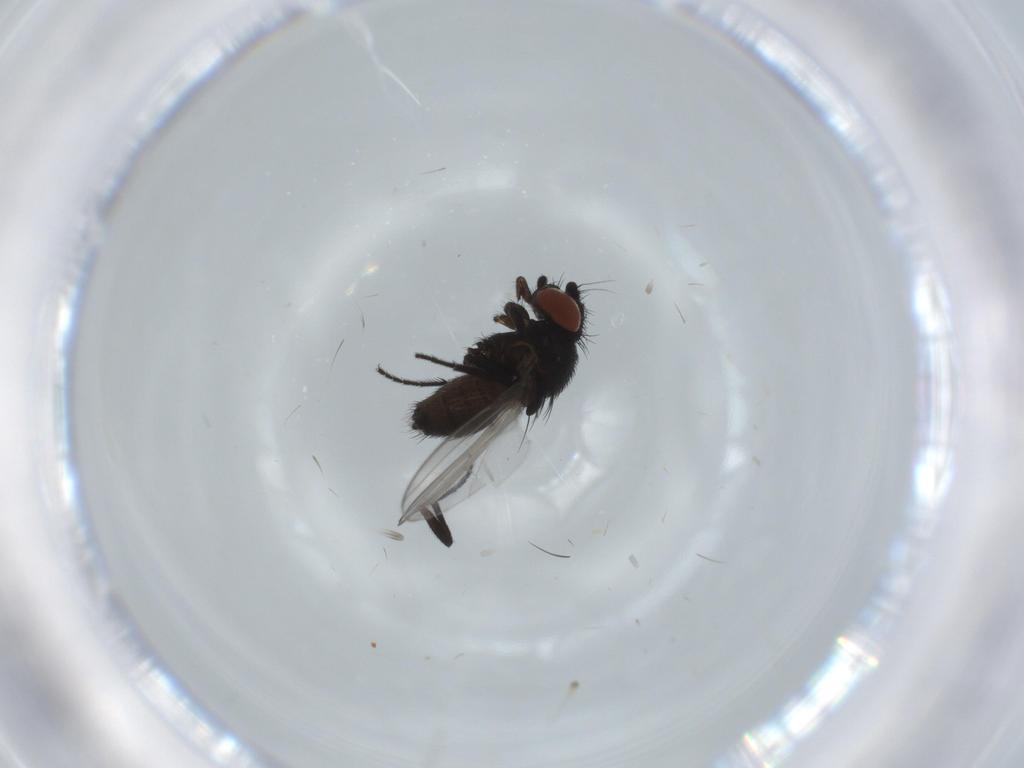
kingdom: Animalia
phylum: Arthropoda
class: Insecta
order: Diptera
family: Milichiidae
